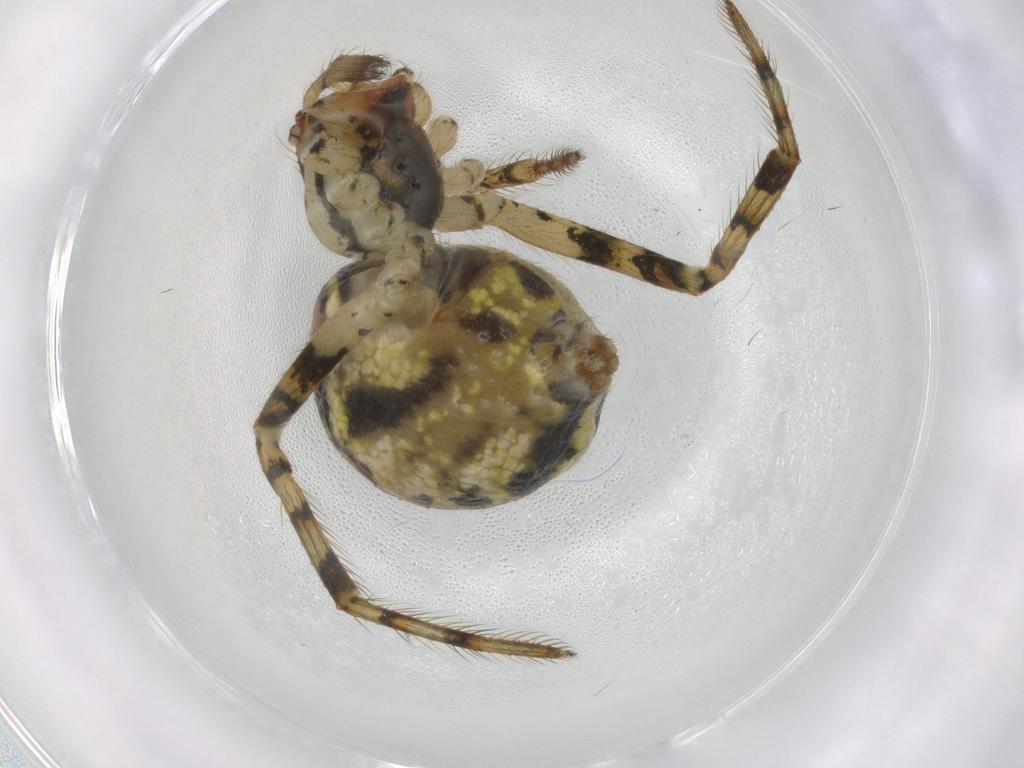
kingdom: Animalia
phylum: Arthropoda
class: Arachnida
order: Araneae
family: Theridiidae
